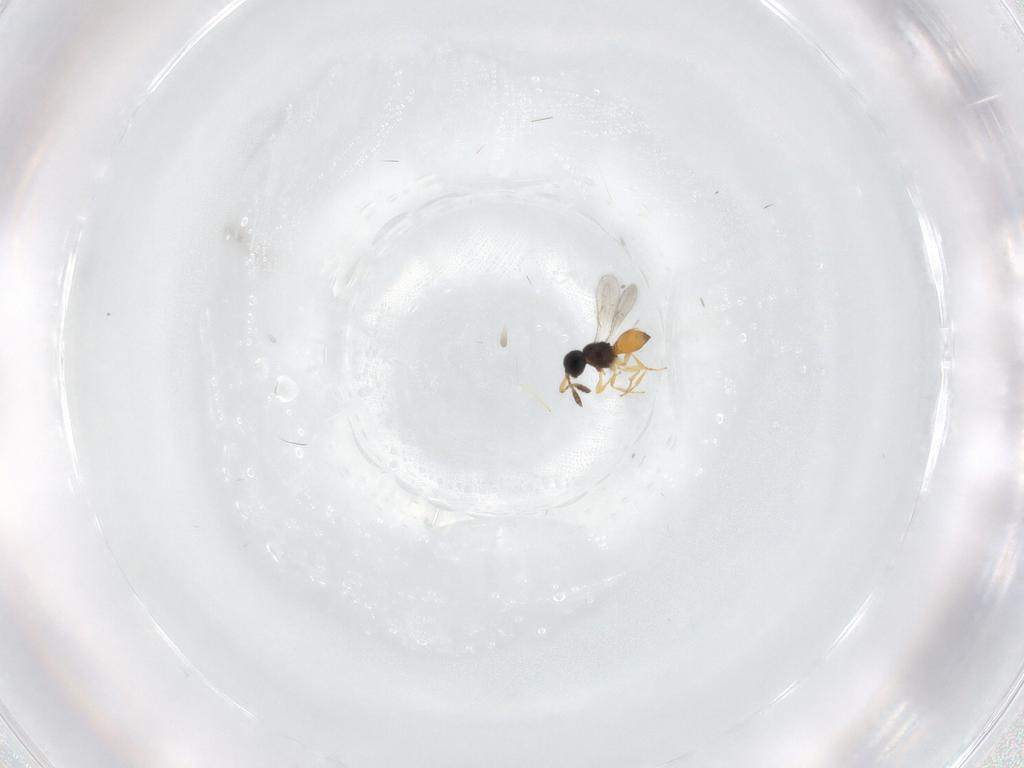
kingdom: Animalia
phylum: Arthropoda
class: Insecta
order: Hymenoptera
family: Scelionidae
